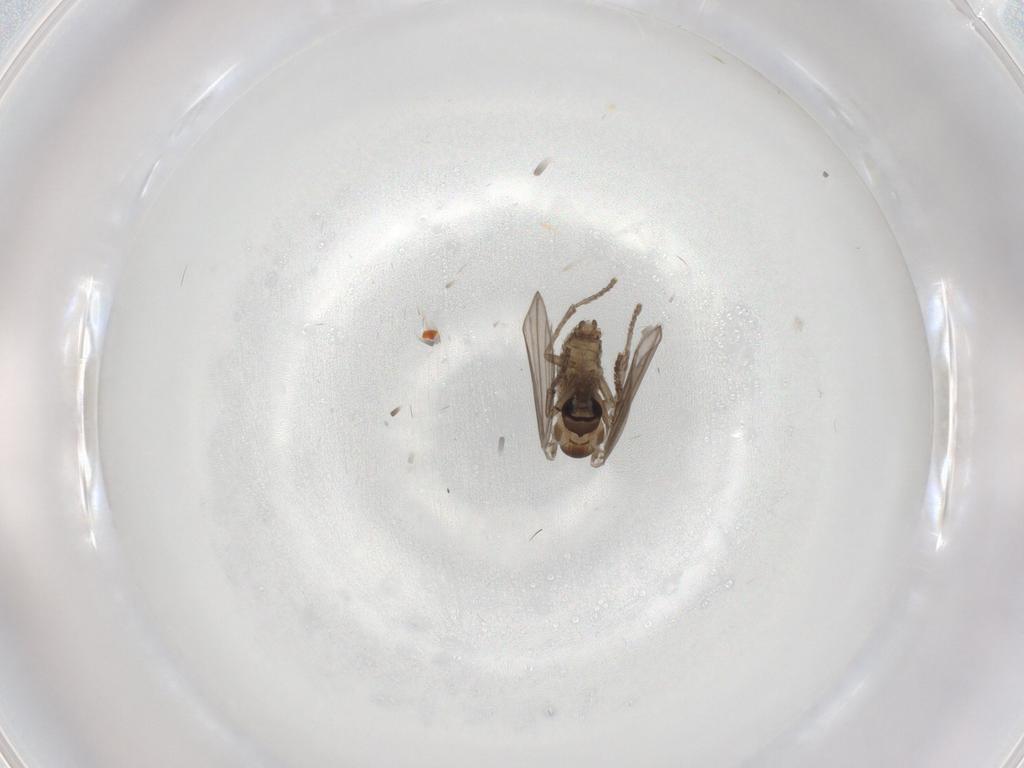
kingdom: Animalia
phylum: Arthropoda
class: Insecta
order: Diptera
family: Psychodidae
